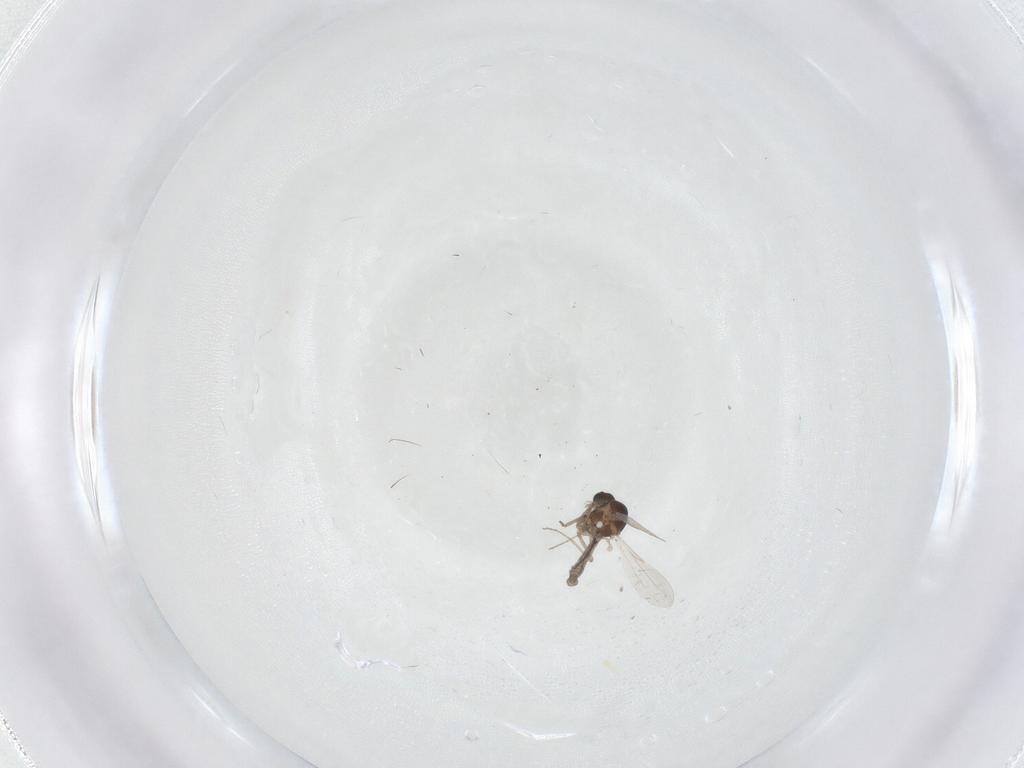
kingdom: Animalia
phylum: Arthropoda
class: Insecta
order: Diptera
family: Ceratopogonidae
